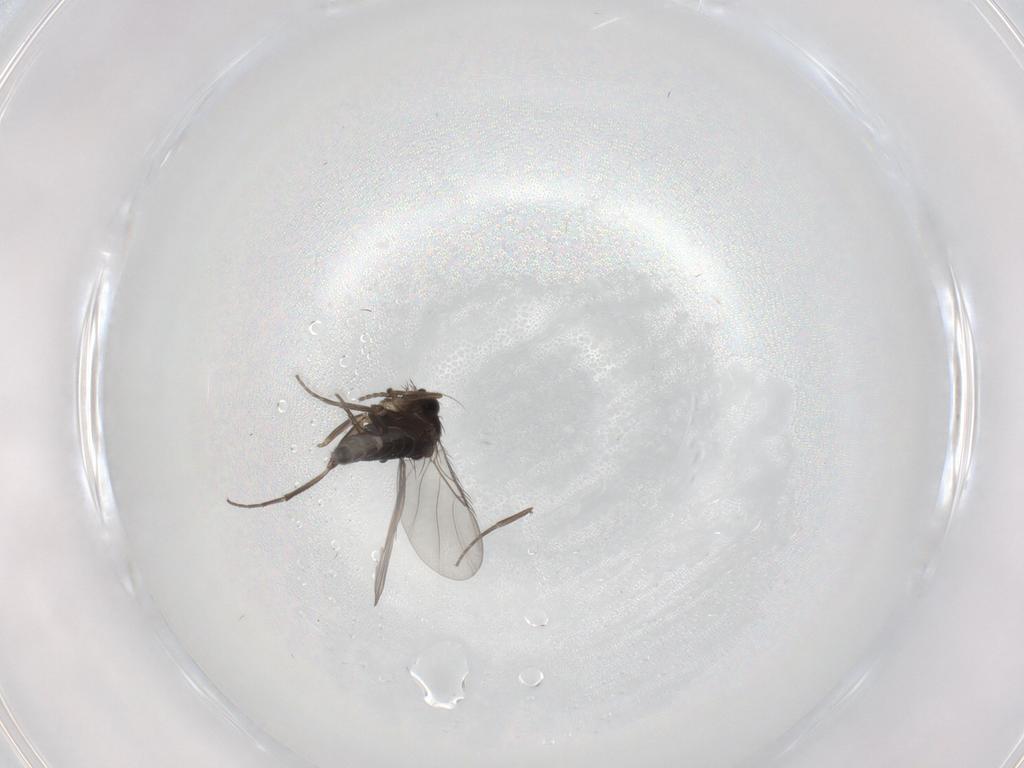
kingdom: Animalia
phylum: Arthropoda
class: Insecta
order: Diptera
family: Phoridae
